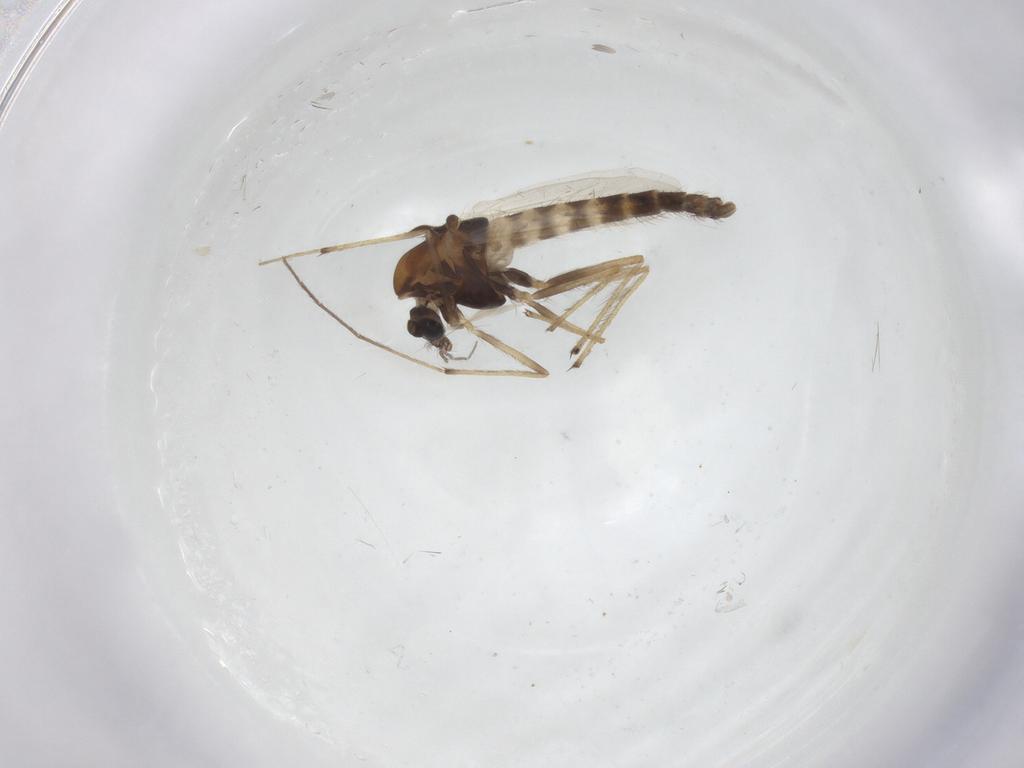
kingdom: Animalia
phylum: Arthropoda
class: Insecta
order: Diptera
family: Chironomidae
